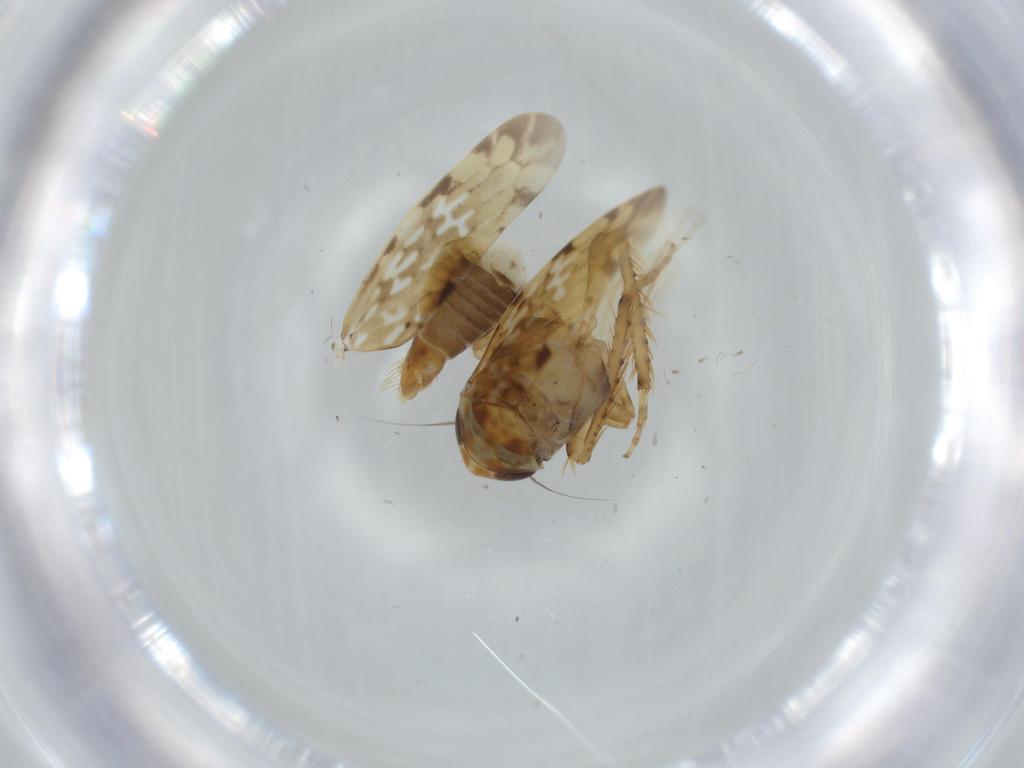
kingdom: Animalia
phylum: Arthropoda
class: Insecta
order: Hemiptera
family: Cicadellidae
